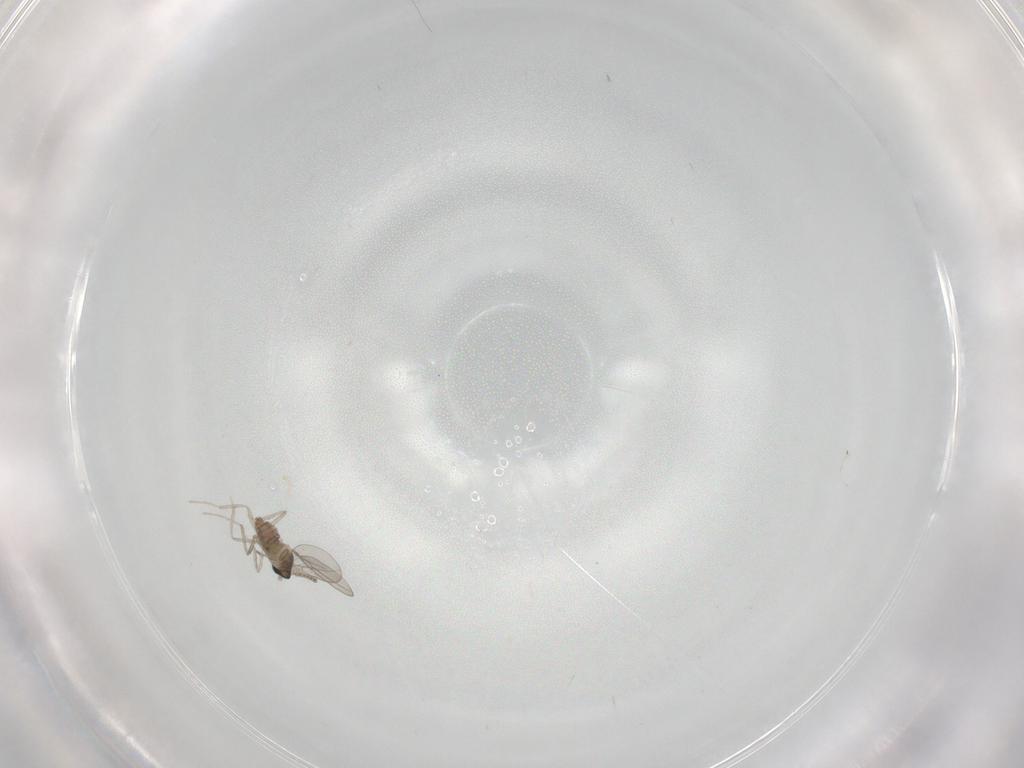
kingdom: Animalia
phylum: Arthropoda
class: Insecta
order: Diptera
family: Cecidomyiidae
